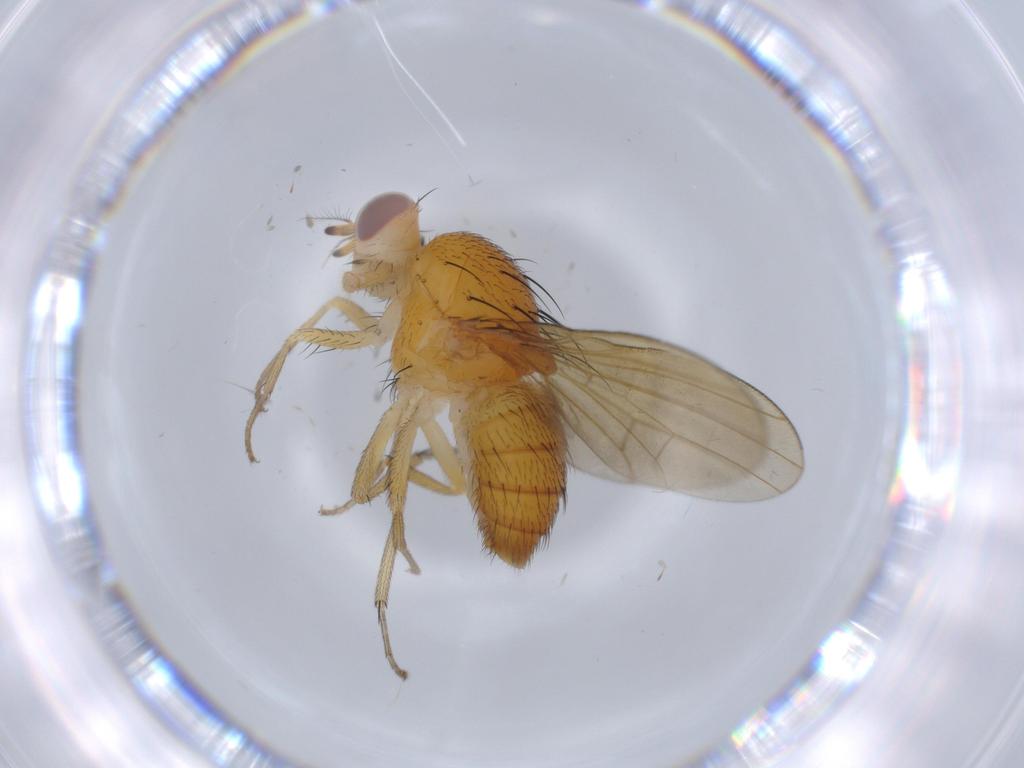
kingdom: Animalia
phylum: Arthropoda
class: Insecta
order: Diptera
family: Lauxaniidae
